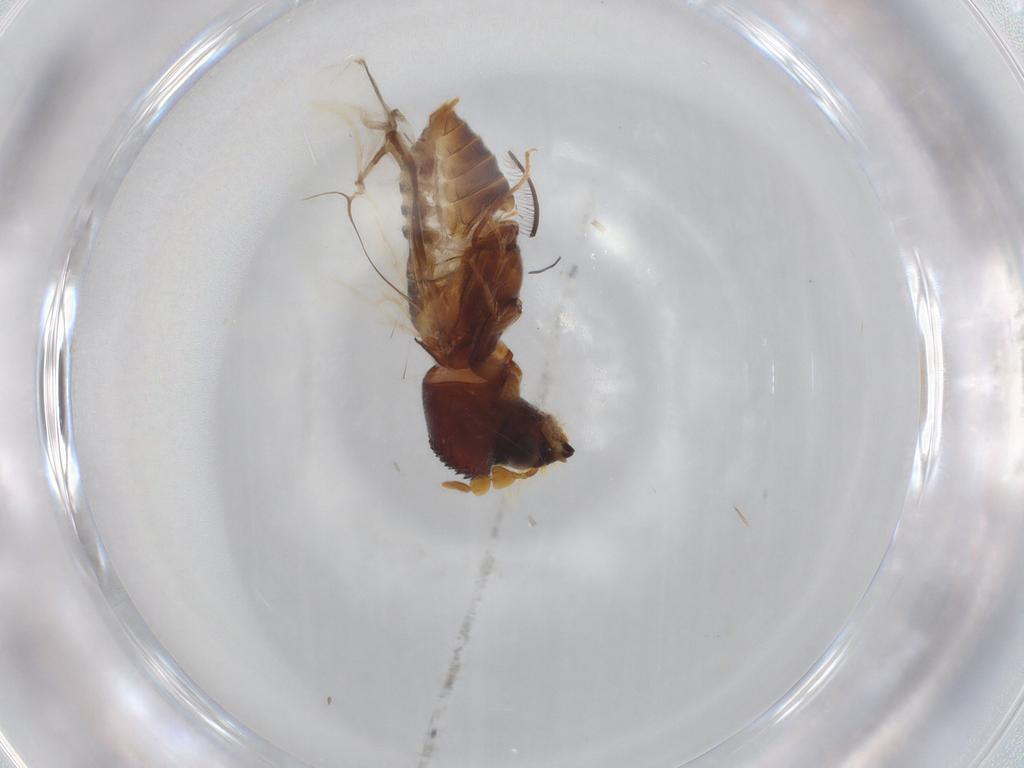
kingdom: Animalia
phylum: Arthropoda
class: Insecta
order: Coleoptera
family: Bostrichidae
